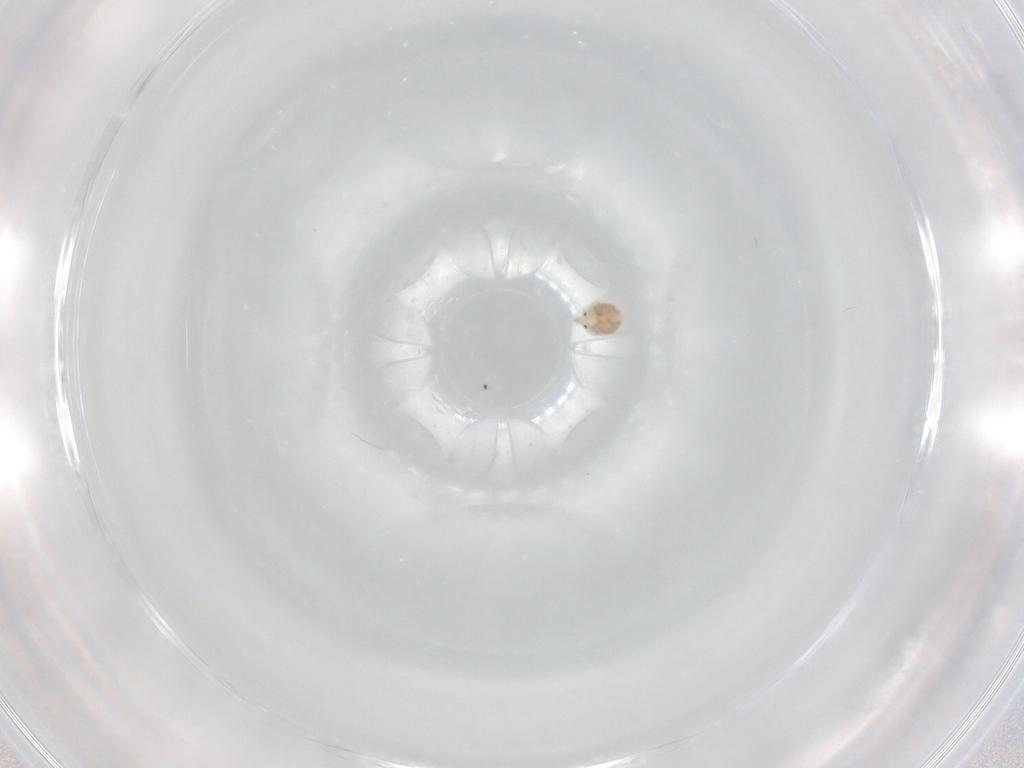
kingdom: Animalia
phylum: Arthropoda
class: Arachnida
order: Trombidiformes
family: Hygrobatidae
